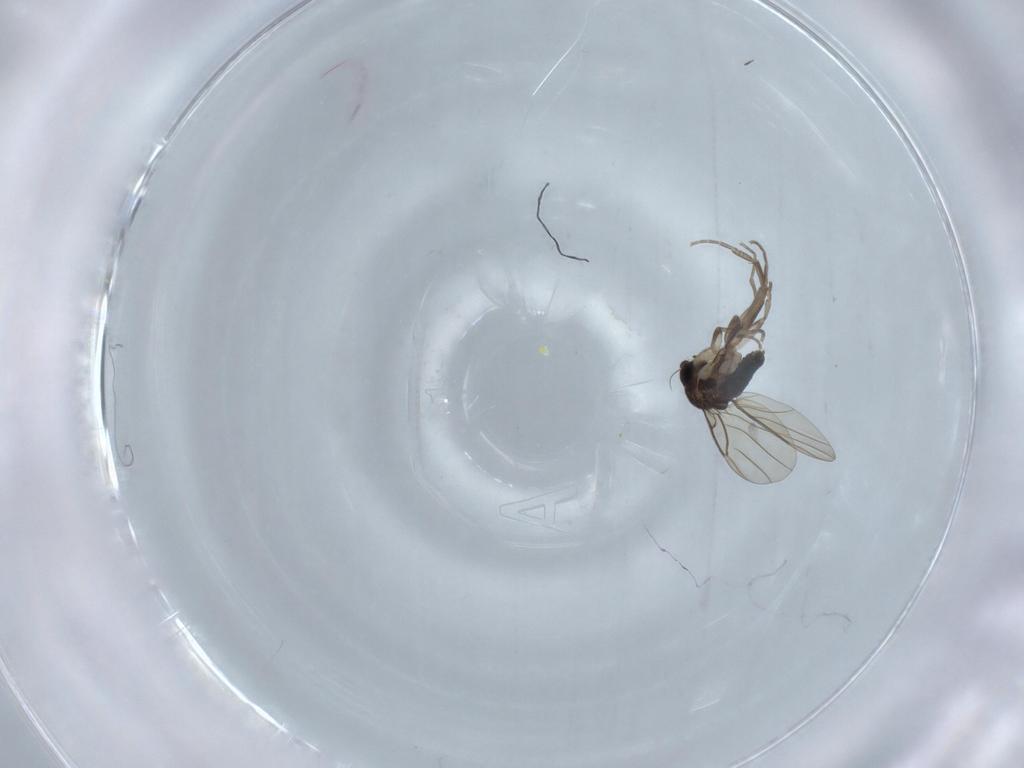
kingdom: Animalia
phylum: Arthropoda
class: Insecta
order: Diptera
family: Phoridae
